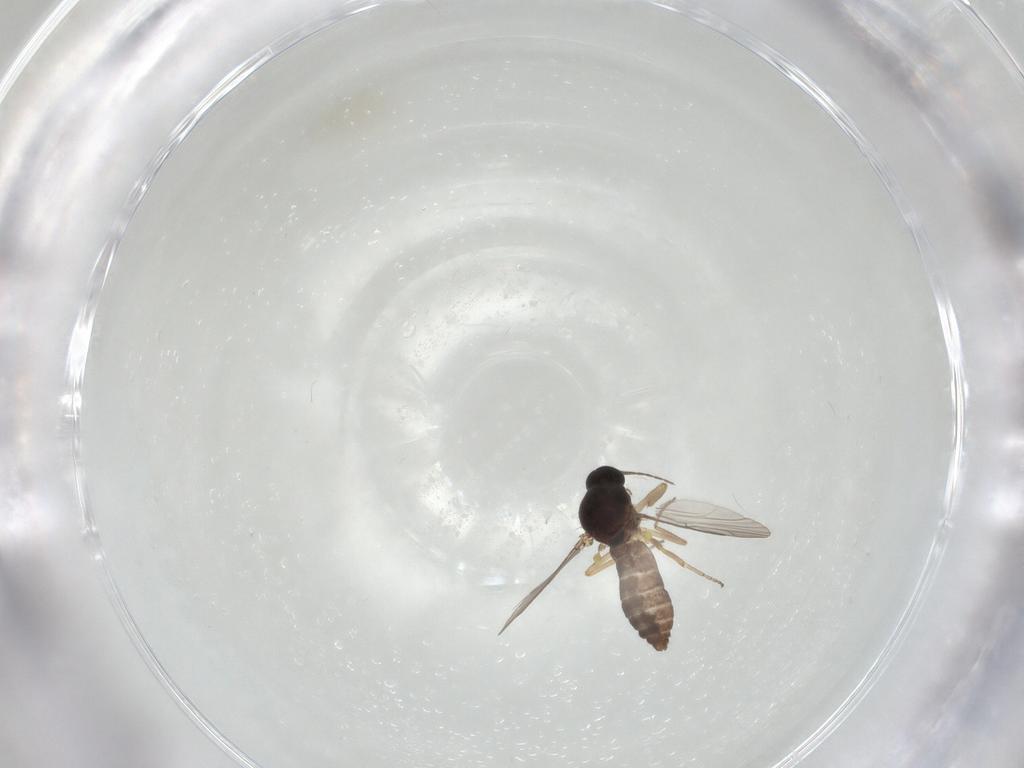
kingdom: Animalia
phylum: Arthropoda
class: Insecta
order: Diptera
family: Ceratopogonidae
